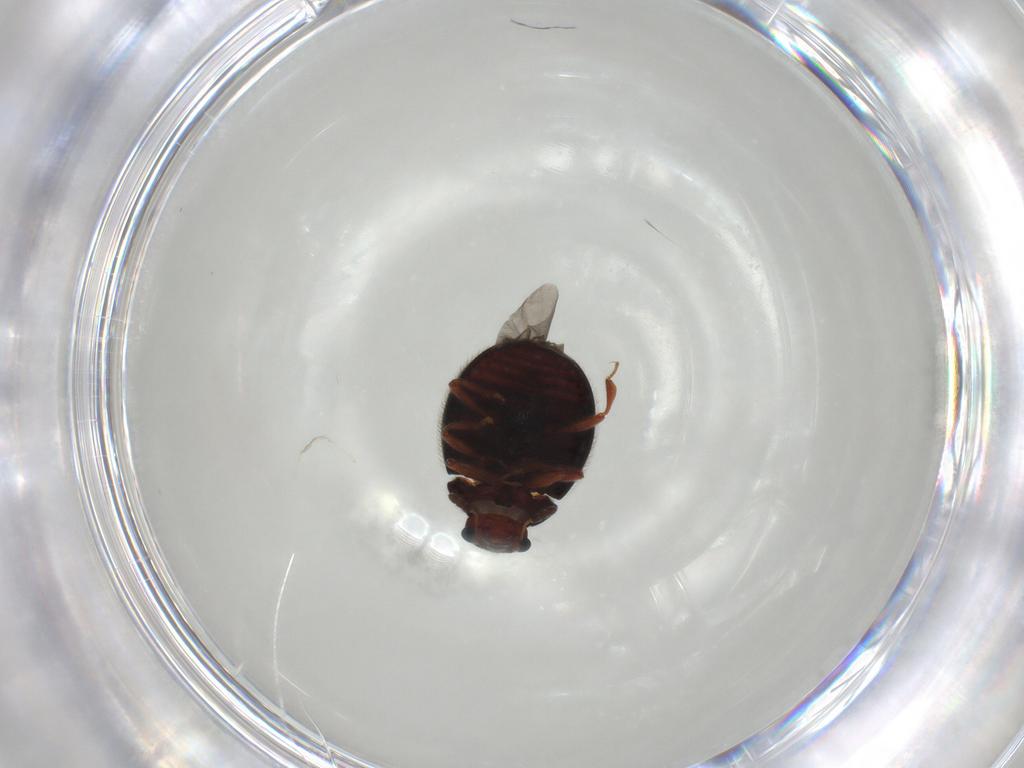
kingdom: Animalia
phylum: Arthropoda
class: Insecta
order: Coleoptera
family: Sphindidae
